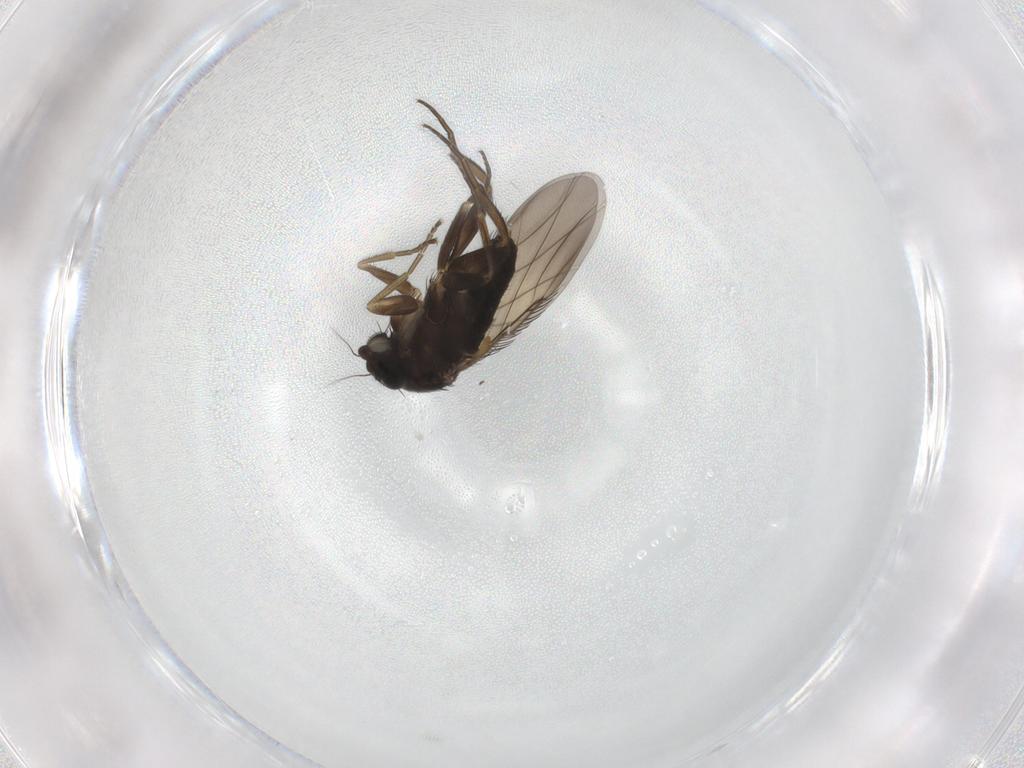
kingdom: Animalia
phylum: Arthropoda
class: Insecta
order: Diptera
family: Phoridae
